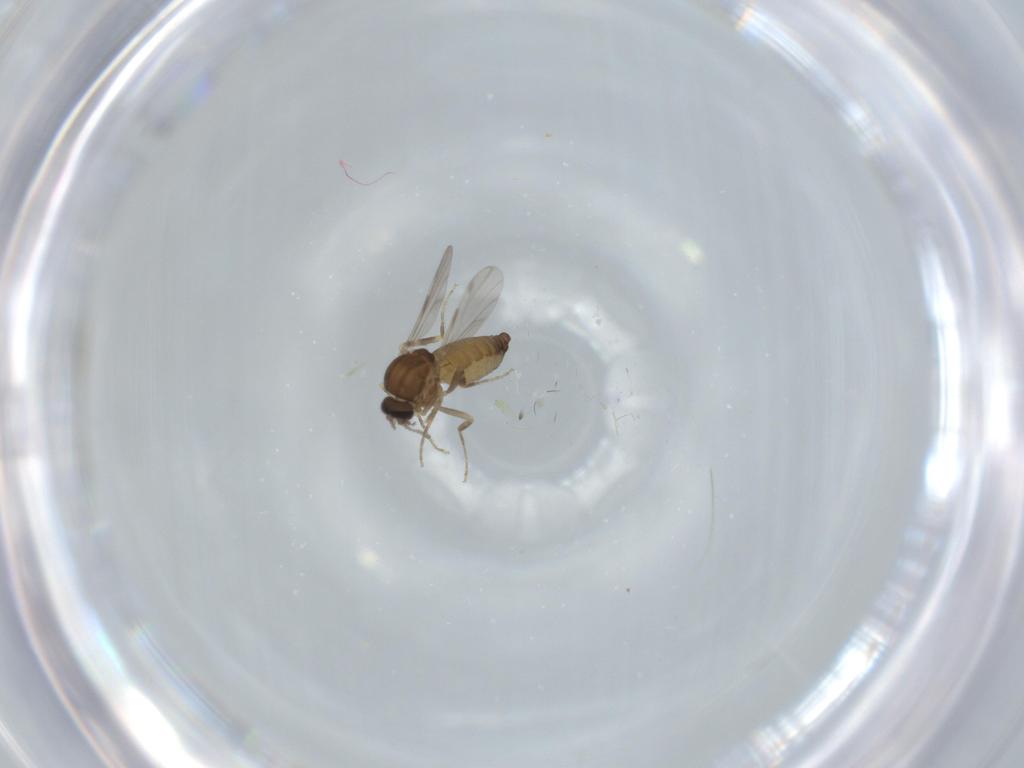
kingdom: Animalia
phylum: Arthropoda
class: Insecta
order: Diptera
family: Ceratopogonidae
